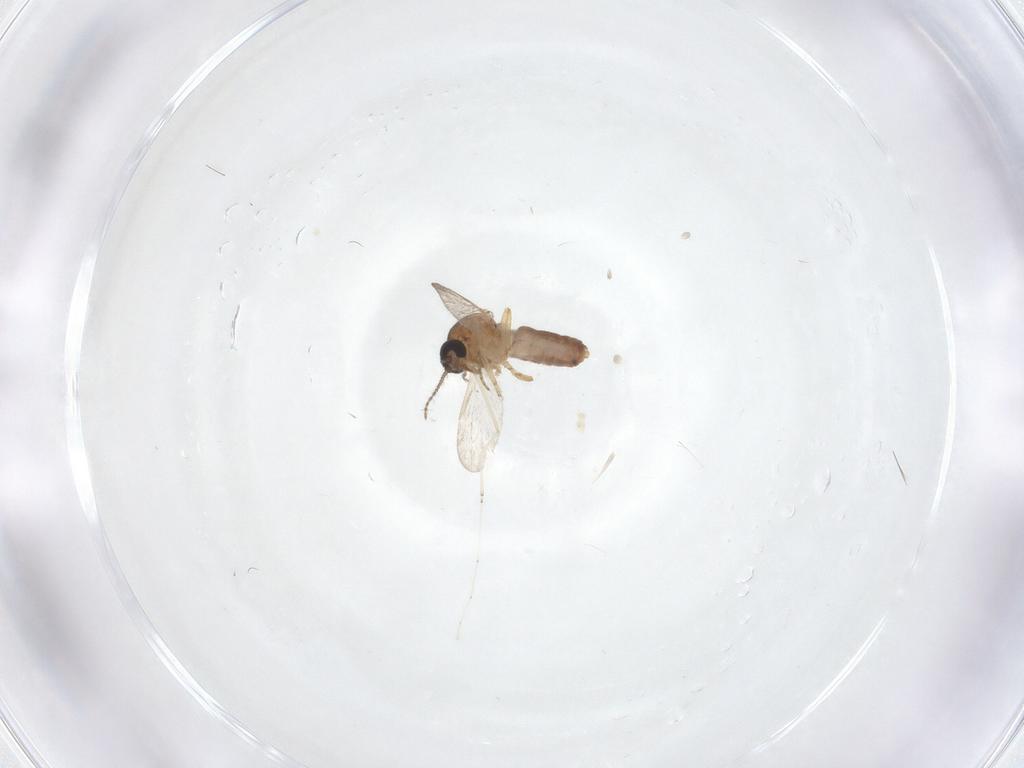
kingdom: Animalia
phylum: Arthropoda
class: Insecta
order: Diptera
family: Ceratopogonidae
